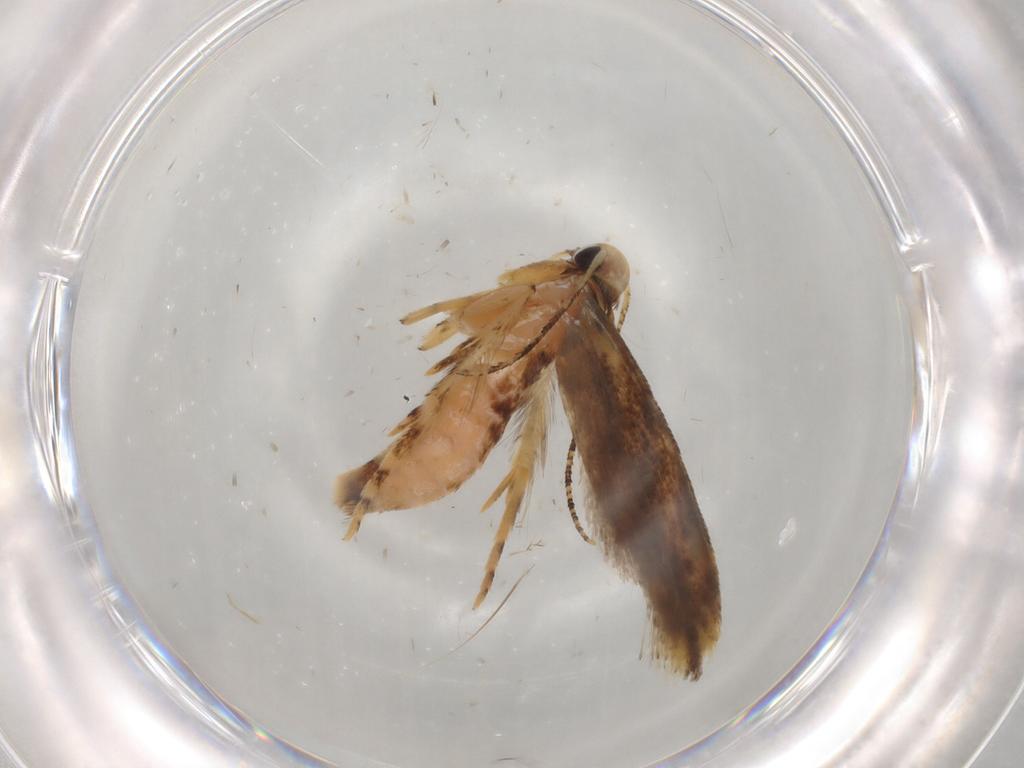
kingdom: Animalia
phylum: Arthropoda
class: Insecta
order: Lepidoptera
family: Gelechiidae
